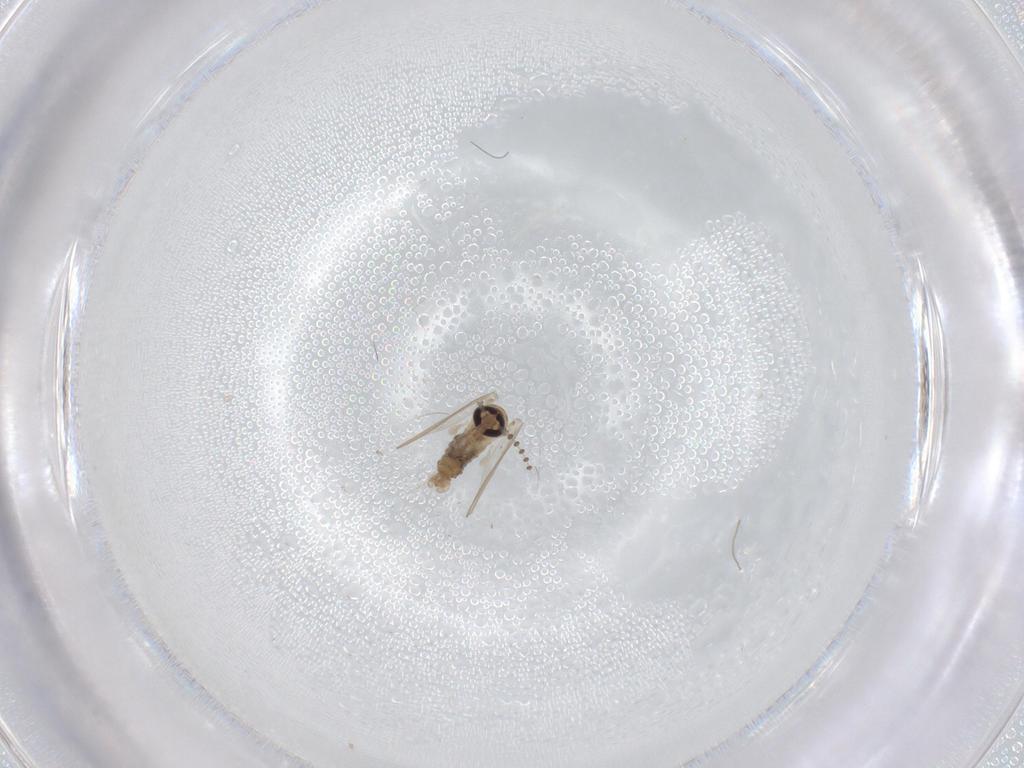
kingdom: Animalia
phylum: Arthropoda
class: Insecta
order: Diptera
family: Psychodidae
